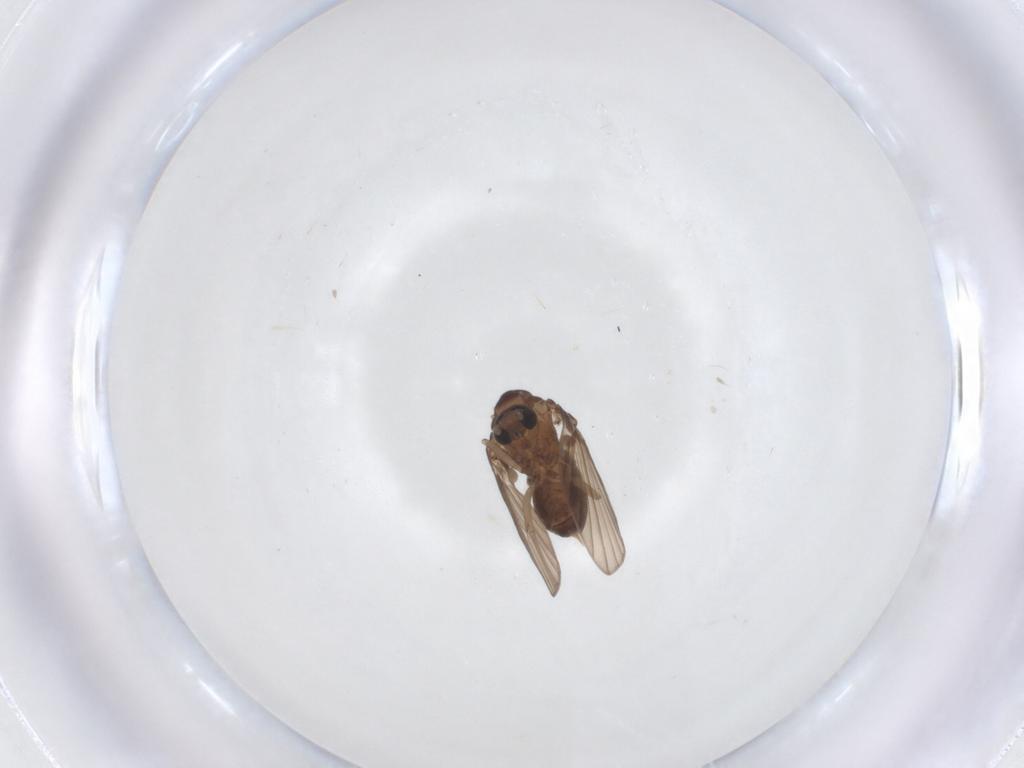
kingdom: Animalia
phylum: Arthropoda
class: Insecta
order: Diptera
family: Psychodidae
